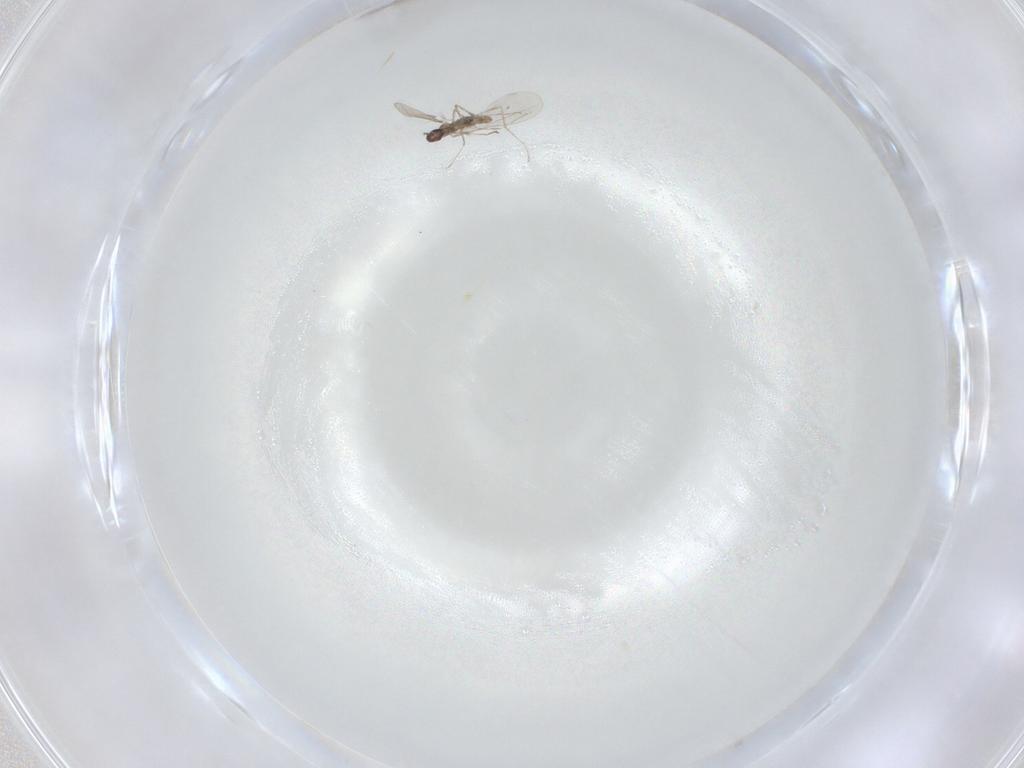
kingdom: Animalia
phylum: Arthropoda
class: Insecta
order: Diptera
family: Cecidomyiidae
